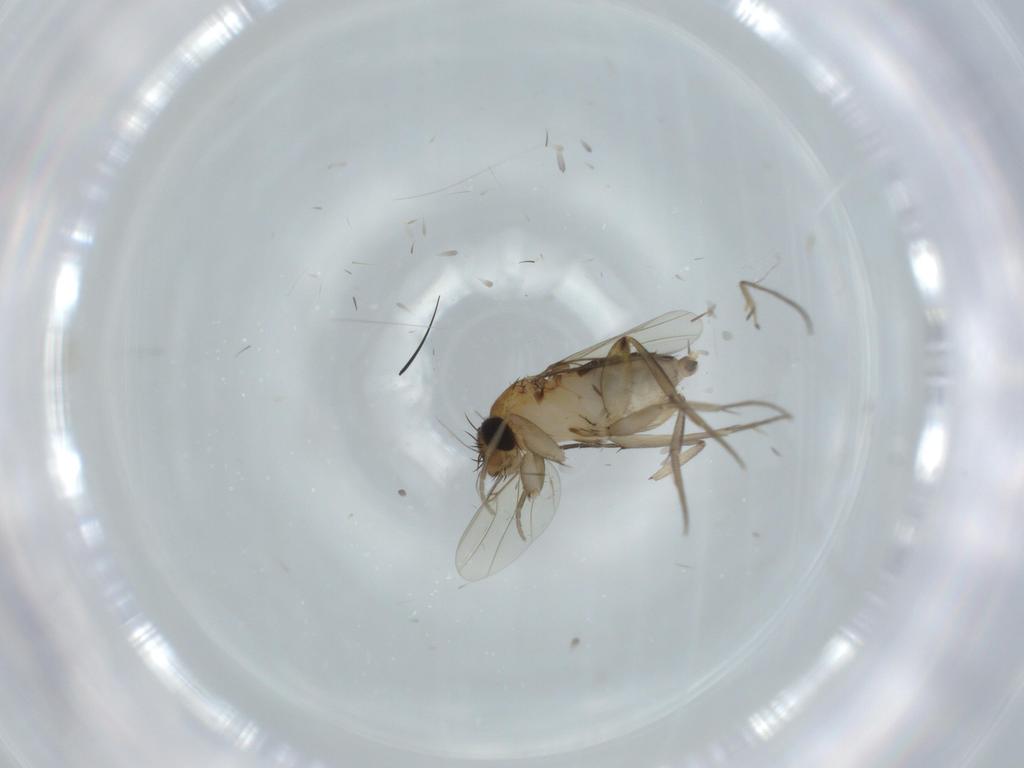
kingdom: Animalia
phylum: Arthropoda
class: Insecta
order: Diptera
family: Phoridae
